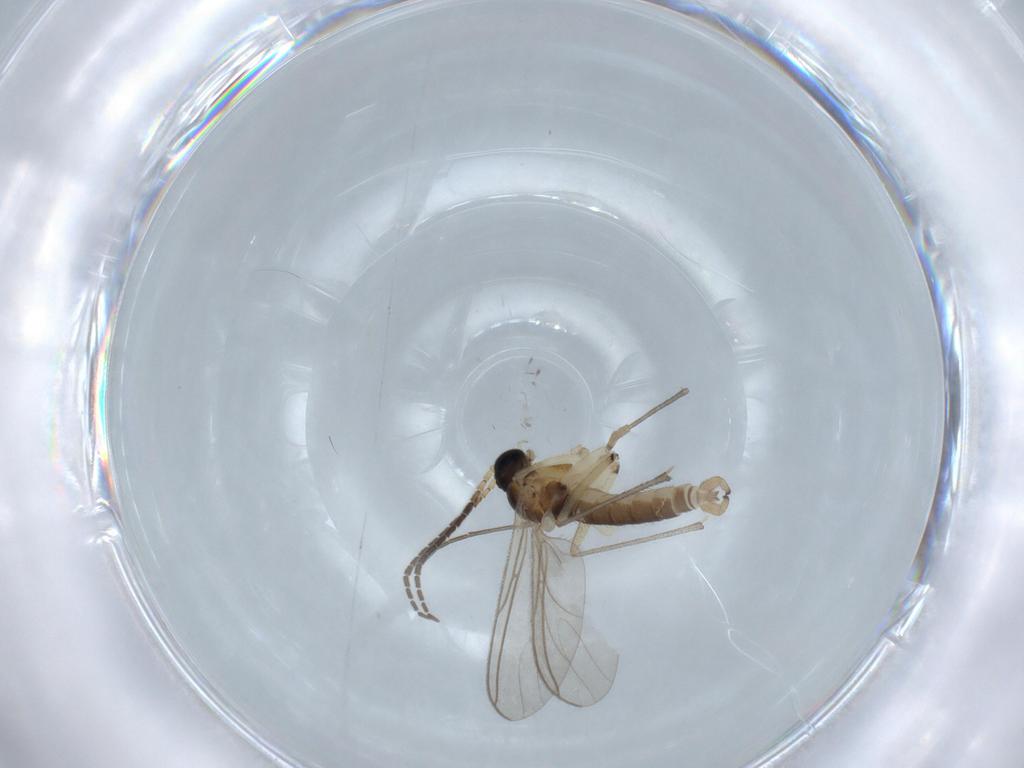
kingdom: Animalia
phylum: Arthropoda
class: Insecta
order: Diptera
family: Sciaridae
